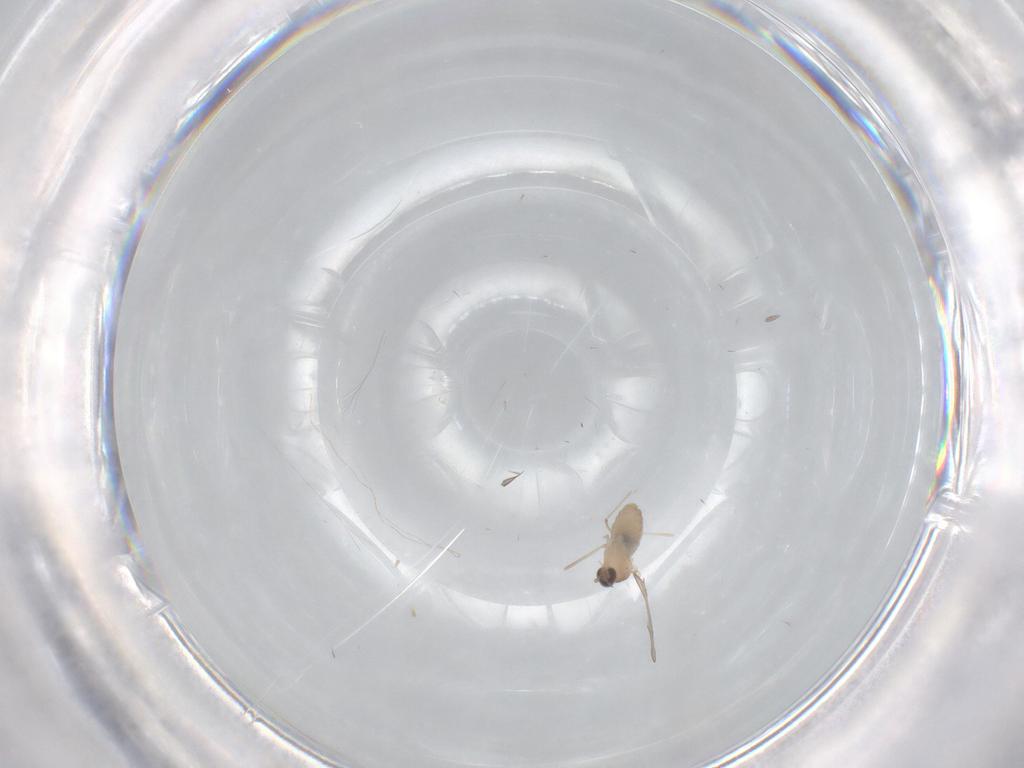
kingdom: Animalia
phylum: Arthropoda
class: Insecta
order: Diptera
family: Cecidomyiidae
